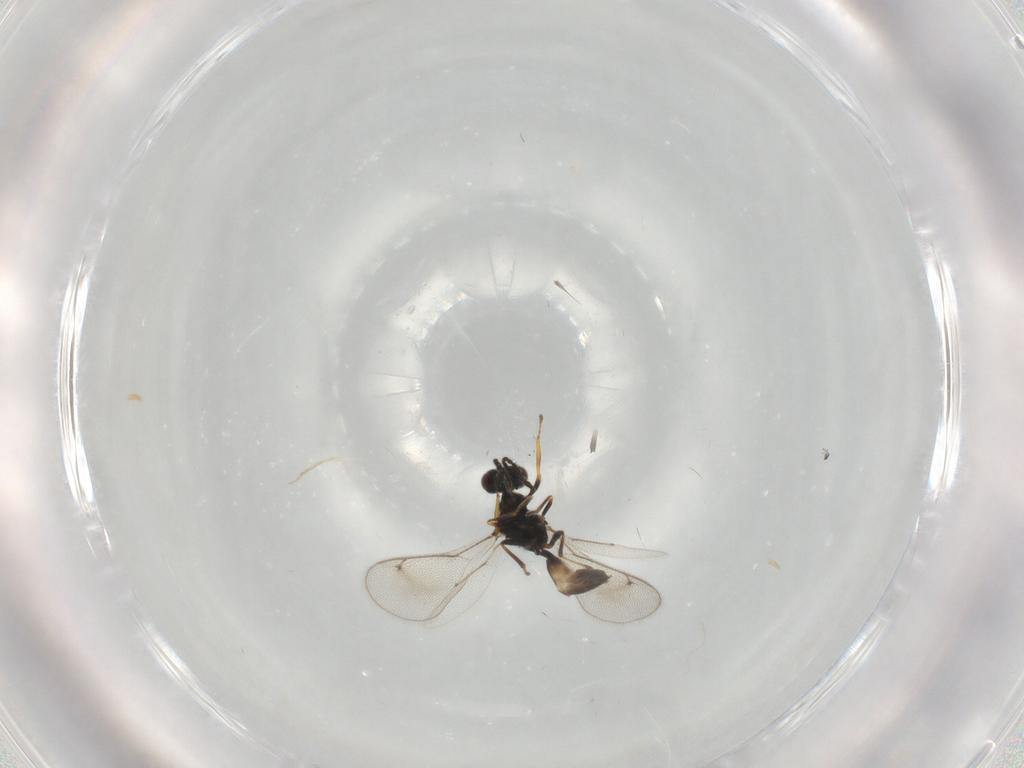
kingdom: Animalia
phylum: Arthropoda
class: Insecta
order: Hymenoptera
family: Eulophidae
